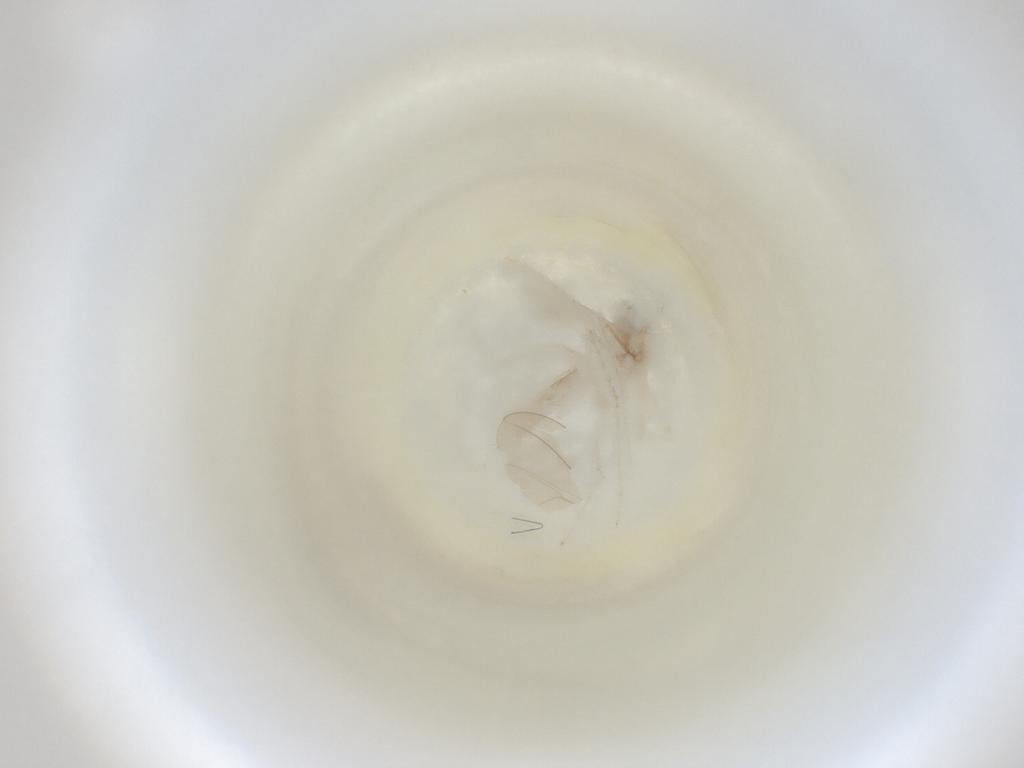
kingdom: Animalia
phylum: Arthropoda
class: Insecta
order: Diptera
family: Cecidomyiidae
